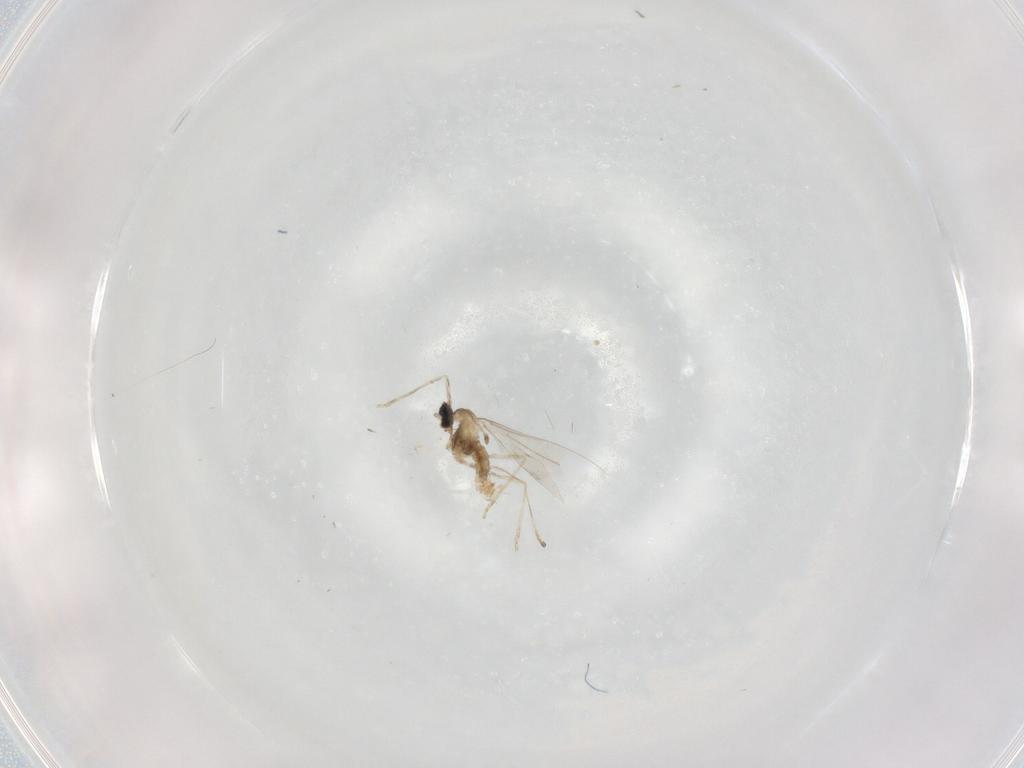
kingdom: Animalia
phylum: Arthropoda
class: Insecta
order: Diptera
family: Cecidomyiidae
